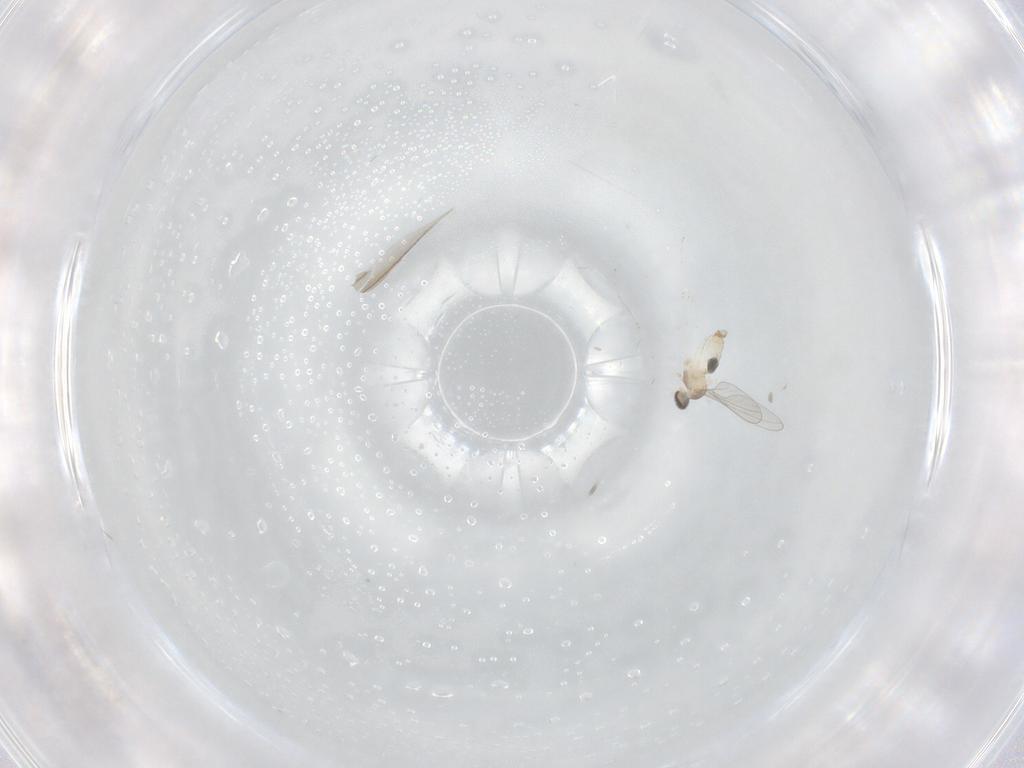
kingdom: Animalia
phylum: Arthropoda
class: Insecta
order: Diptera
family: Cecidomyiidae
